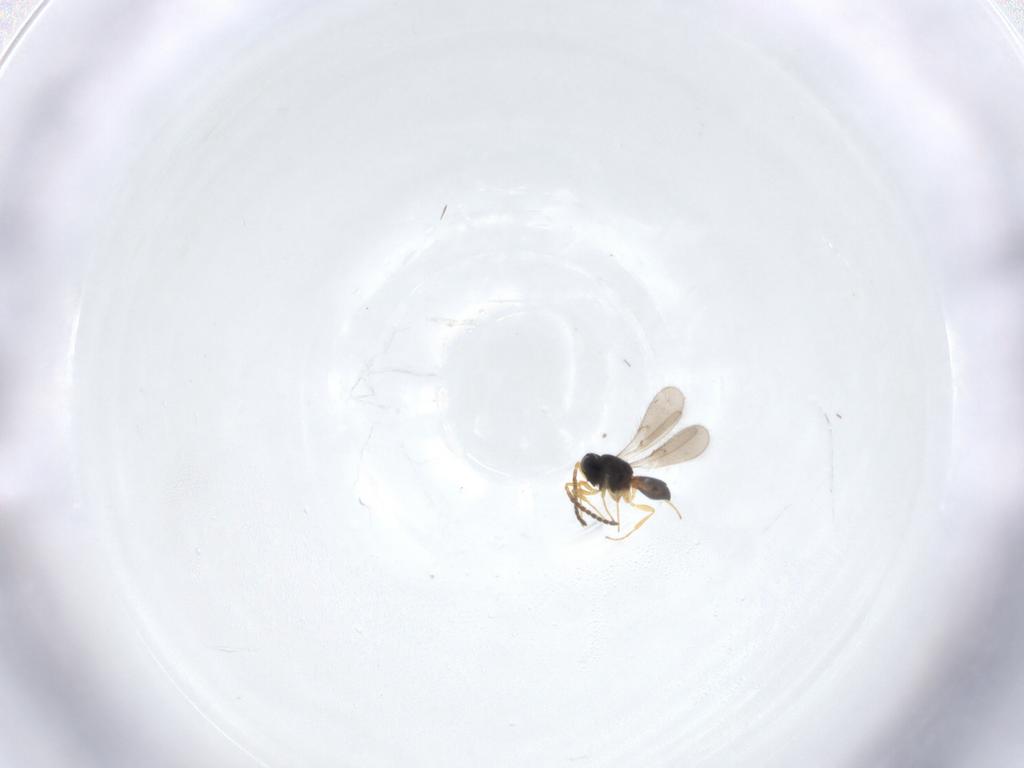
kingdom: Animalia
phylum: Arthropoda
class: Insecta
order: Hymenoptera
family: Scelionidae
